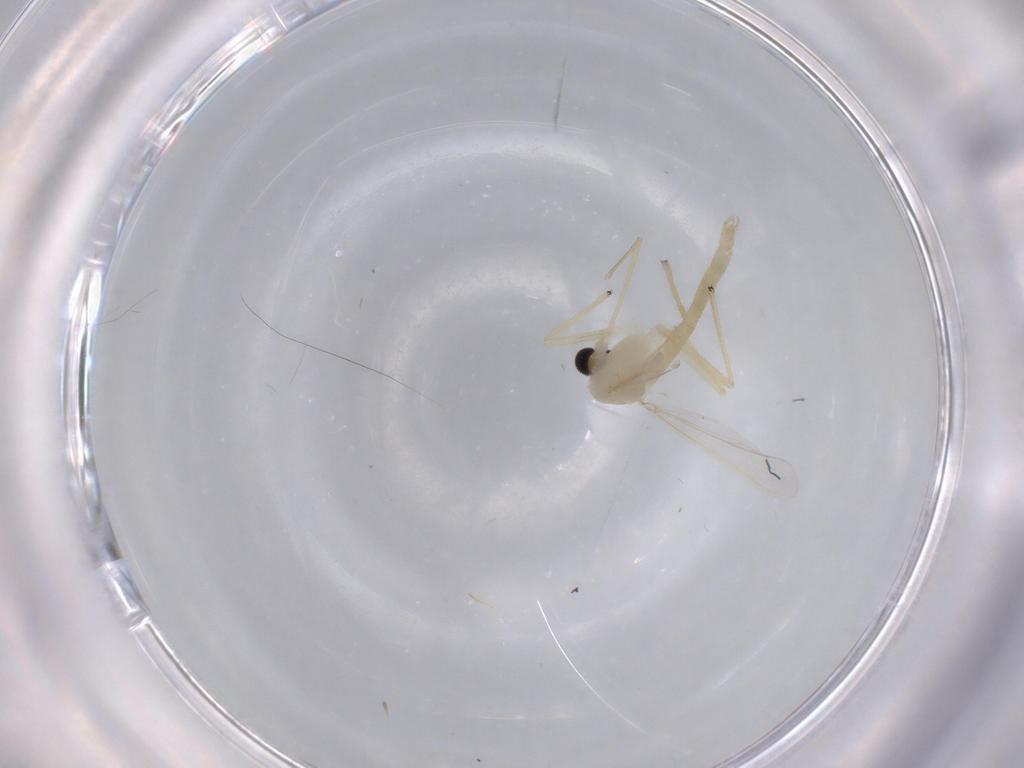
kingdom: Animalia
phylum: Arthropoda
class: Insecta
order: Diptera
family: Chironomidae
